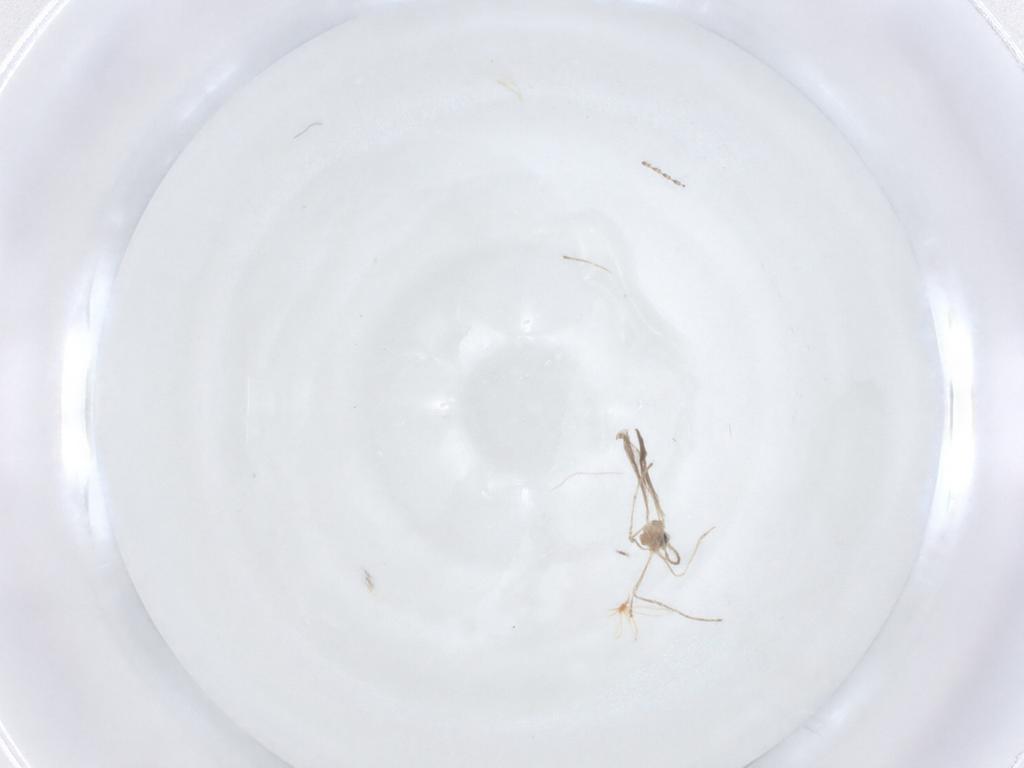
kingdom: Animalia
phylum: Arthropoda
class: Insecta
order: Diptera
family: Cecidomyiidae
